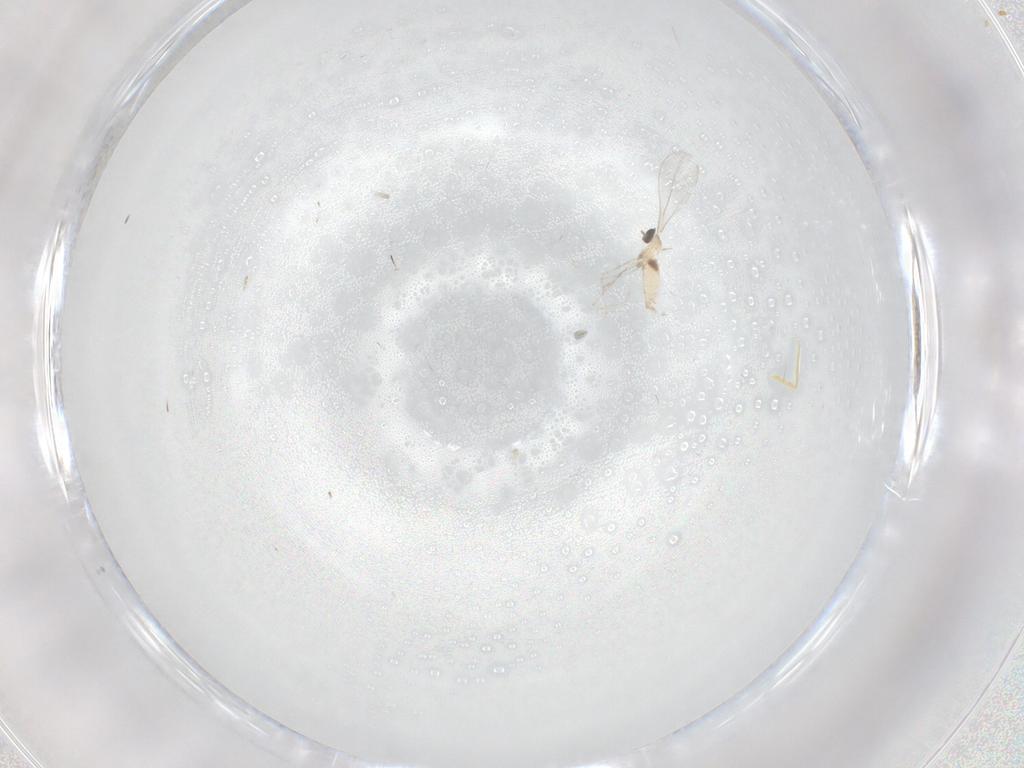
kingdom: Animalia
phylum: Arthropoda
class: Insecta
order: Diptera
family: Cecidomyiidae
